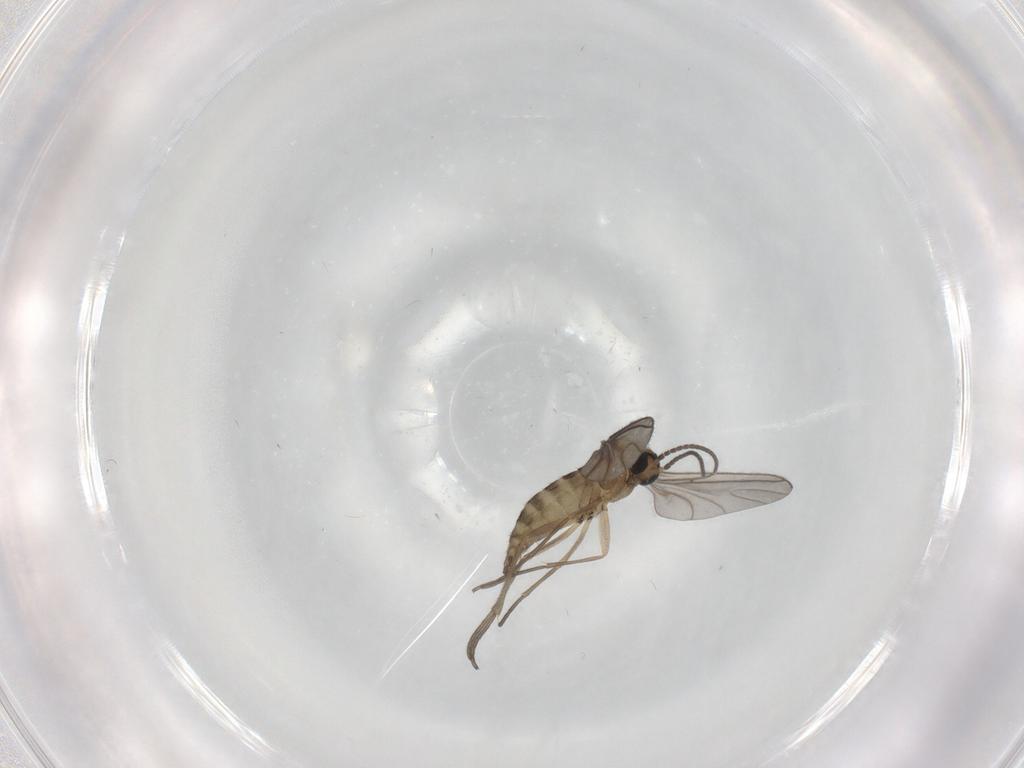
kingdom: Animalia
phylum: Arthropoda
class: Insecta
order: Diptera
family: Sciaridae
